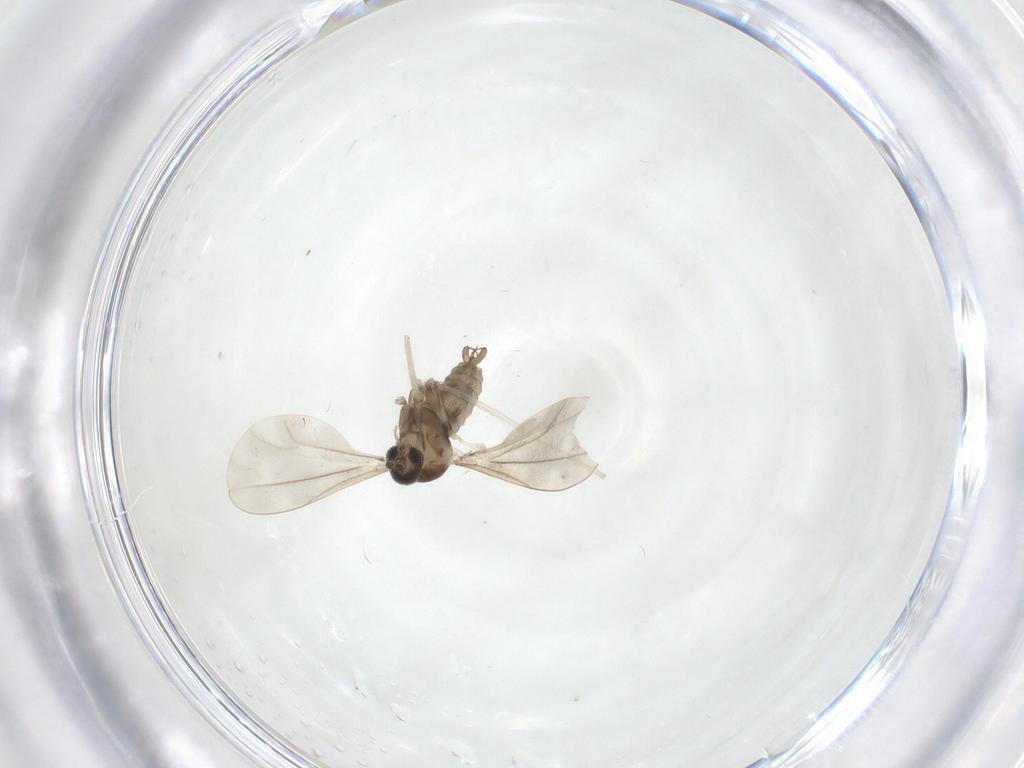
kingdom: Animalia
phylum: Arthropoda
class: Insecta
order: Diptera
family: Cecidomyiidae
